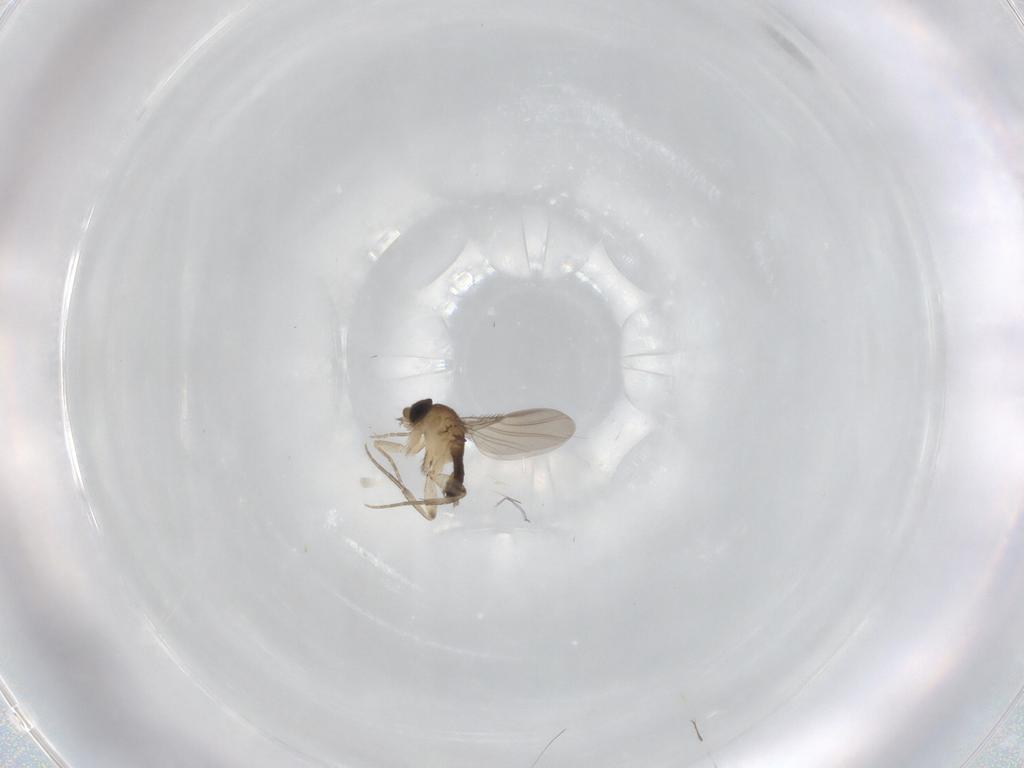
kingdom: Animalia
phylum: Arthropoda
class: Insecta
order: Diptera
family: Phoridae
